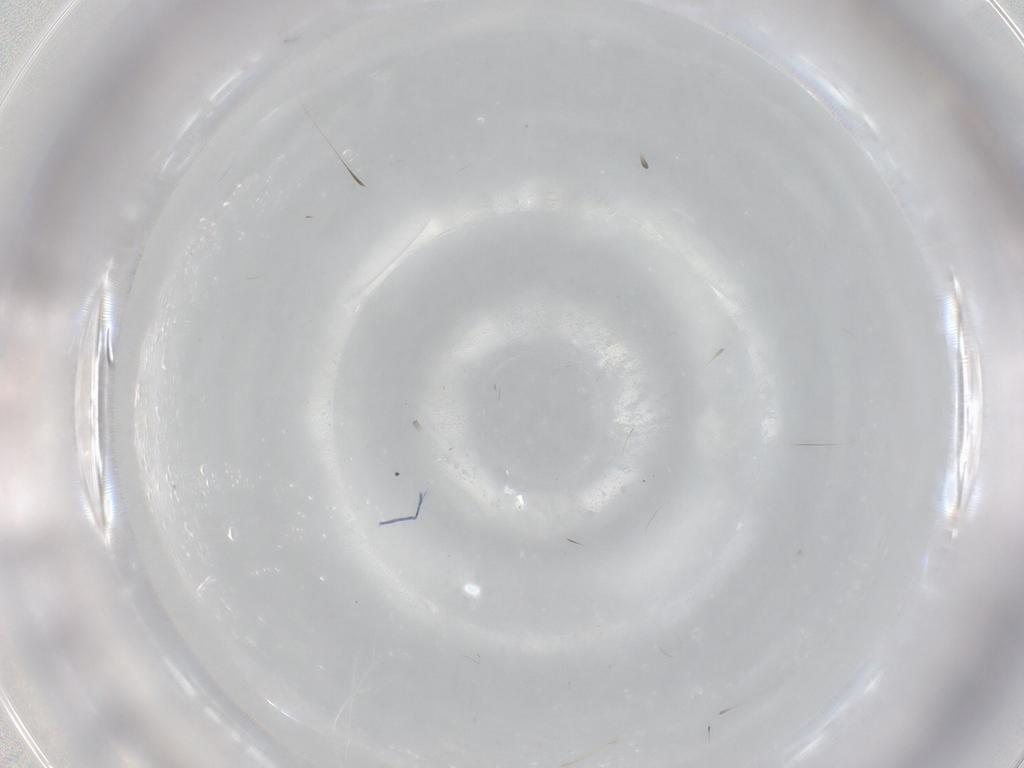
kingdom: Animalia
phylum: Arthropoda
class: Insecta
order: Diptera
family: Cecidomyiidae
